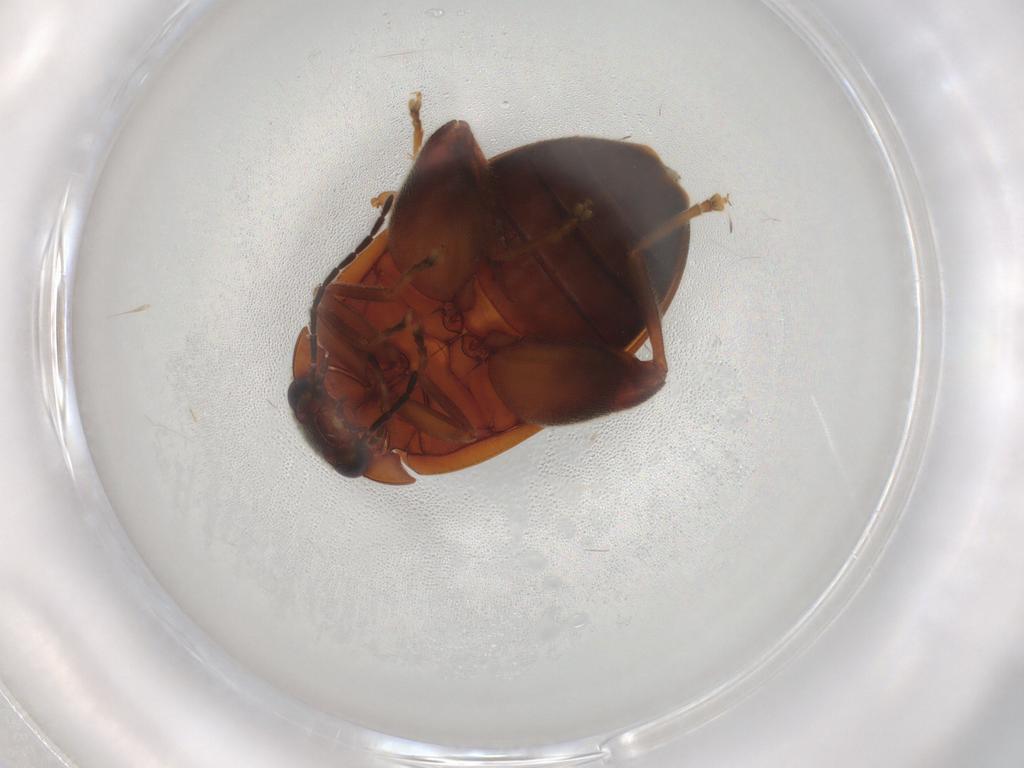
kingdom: Animalia
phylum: Arthropoda
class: Insecta
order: Coleoptera
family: Scirtidae
